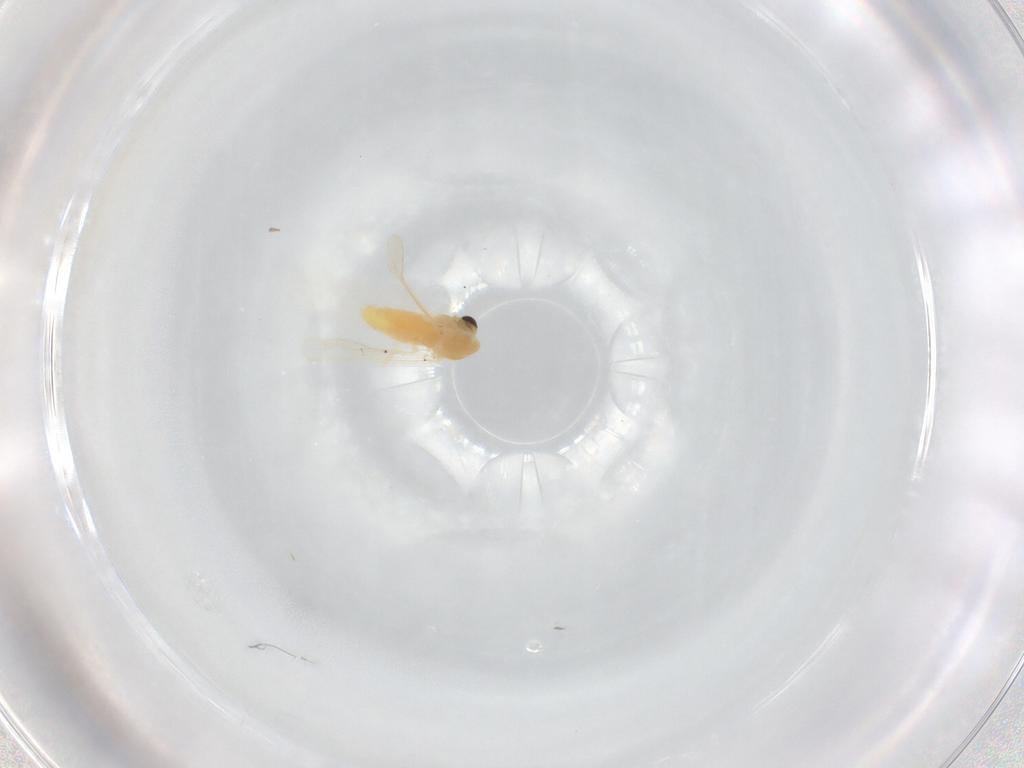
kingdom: Animalia
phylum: Arthropoda
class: Insecta
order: Diptera
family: Chironomidae
